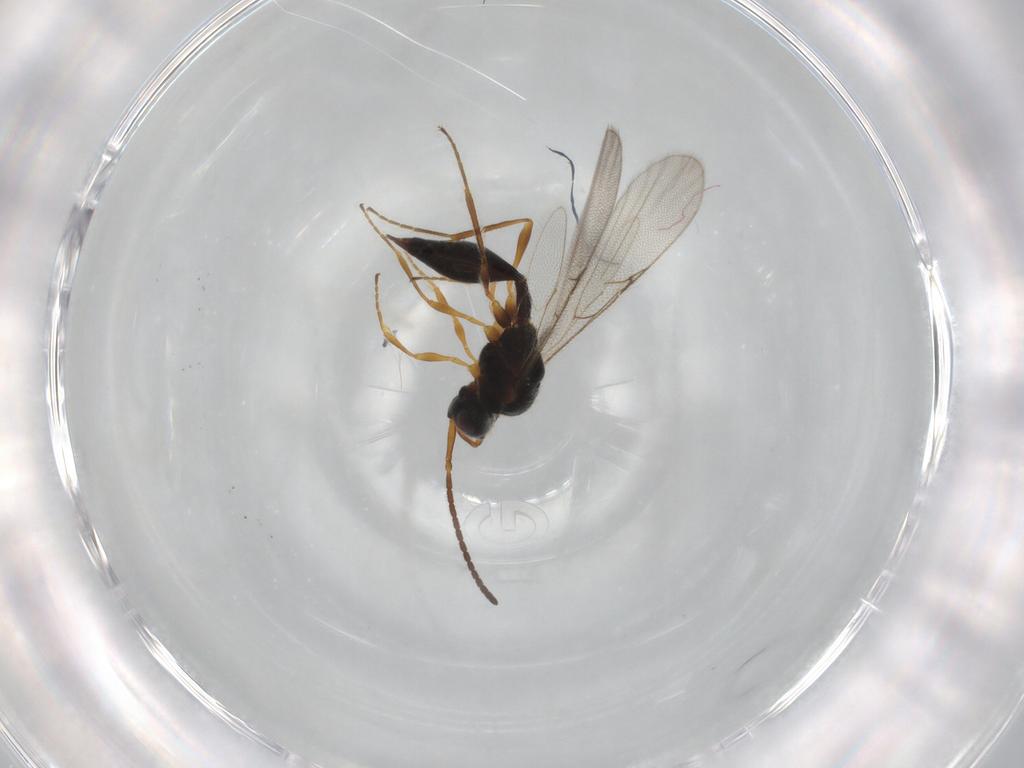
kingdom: Animalia
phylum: Arthropoda
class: Insecta
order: Hymenoptera
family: Diapriidae
